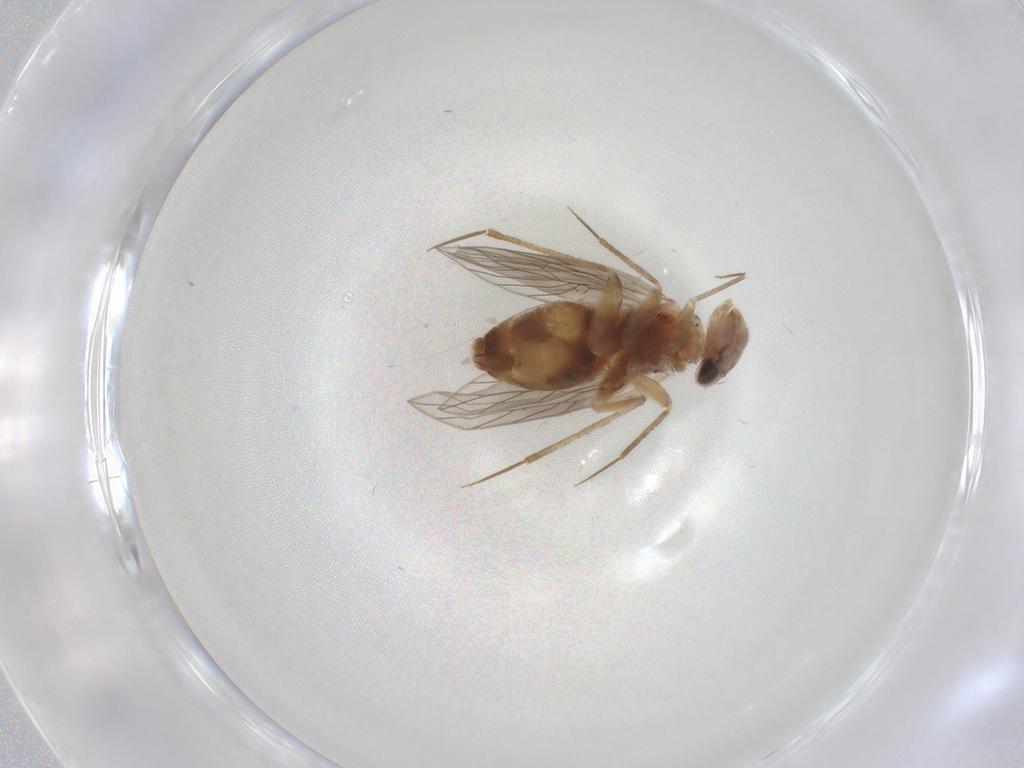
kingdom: Animalia
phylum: Arthropoda
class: Insecta
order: Psocodea
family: Lepidopsocidae
